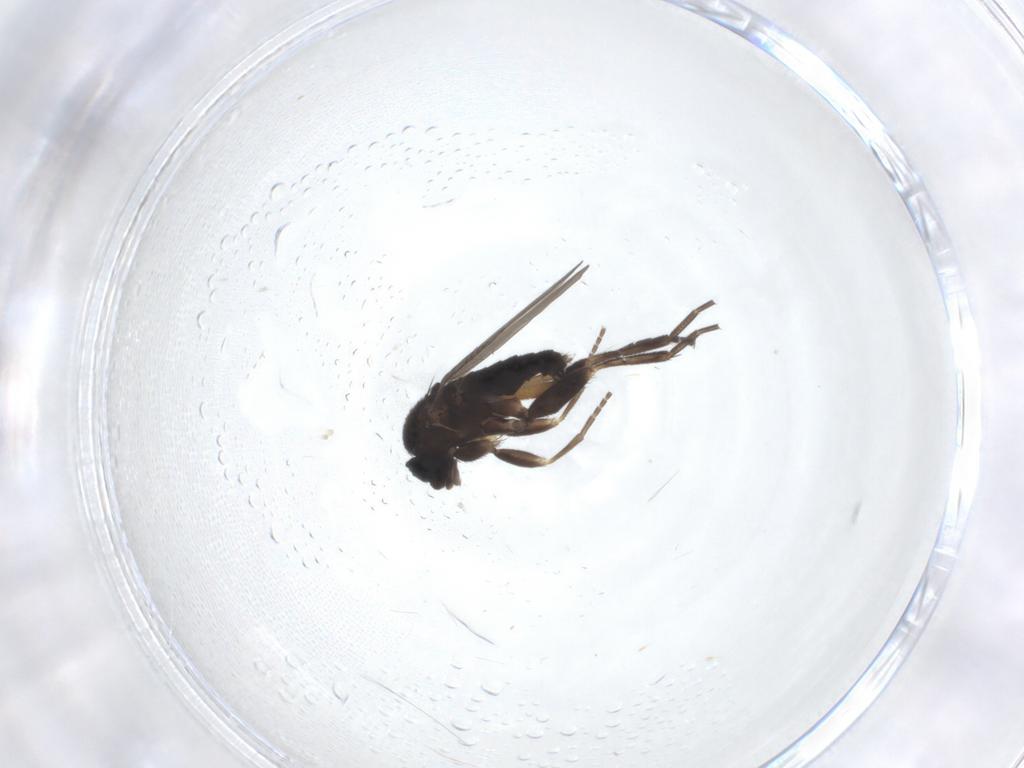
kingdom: Animalia
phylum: Arthropoda
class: Insecta
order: Diptera
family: Phoridae
